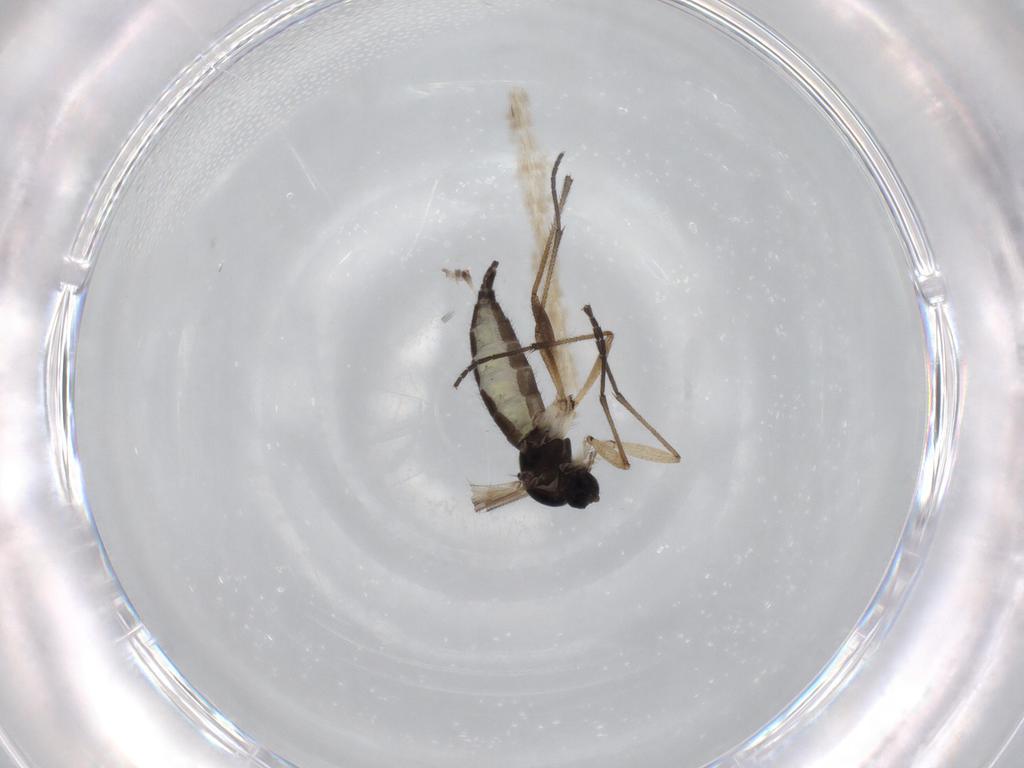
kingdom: Animalia
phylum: Arthropoda
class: Insecta
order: Diptera
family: Sciaridae
